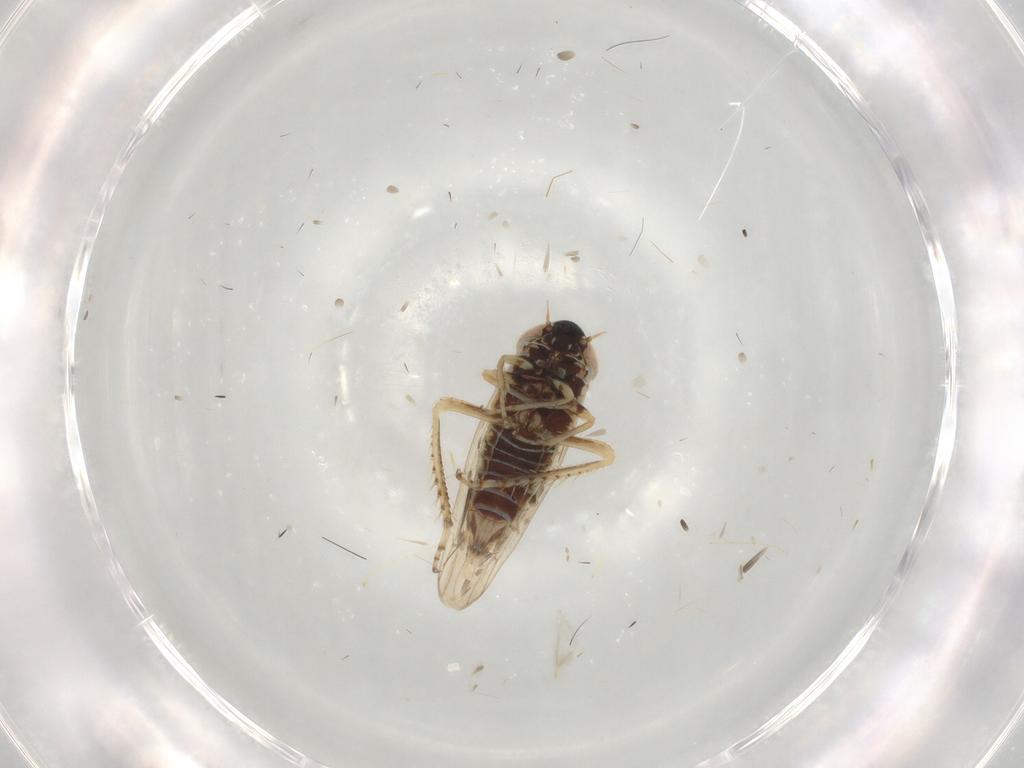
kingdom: Animalia
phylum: Arthropoda
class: Insecta
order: Hemiptera
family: Cicadellidae
